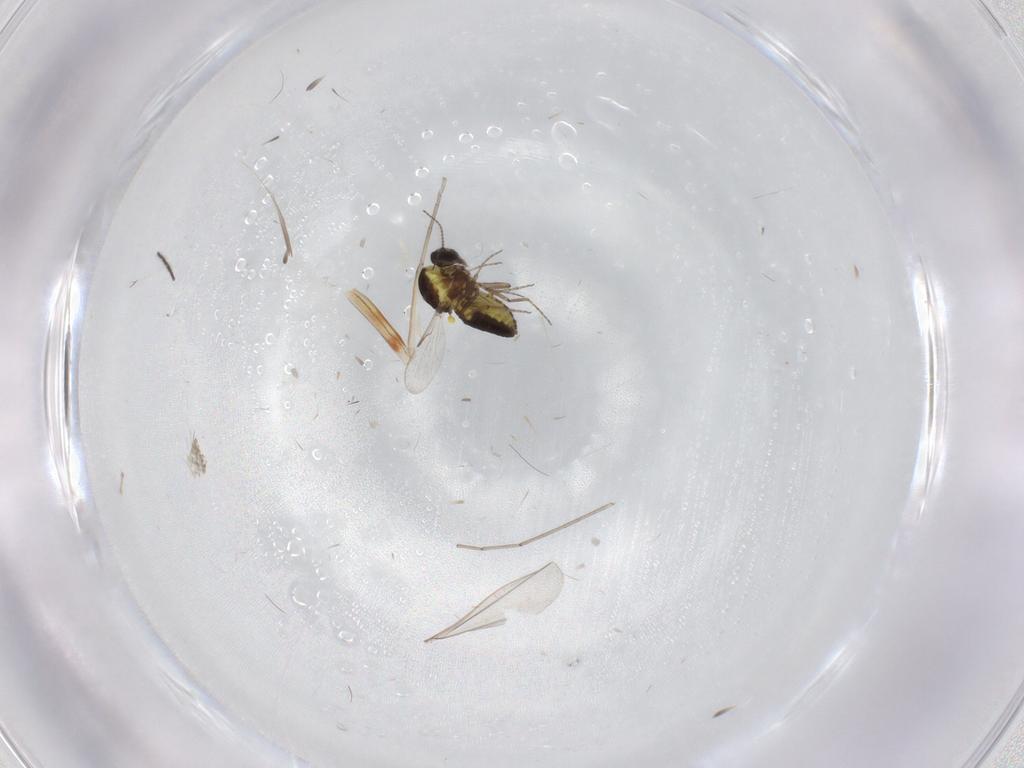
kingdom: Animalia
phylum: Arthropoda
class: Insecta
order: Diptera
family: Cecidomyiidae
